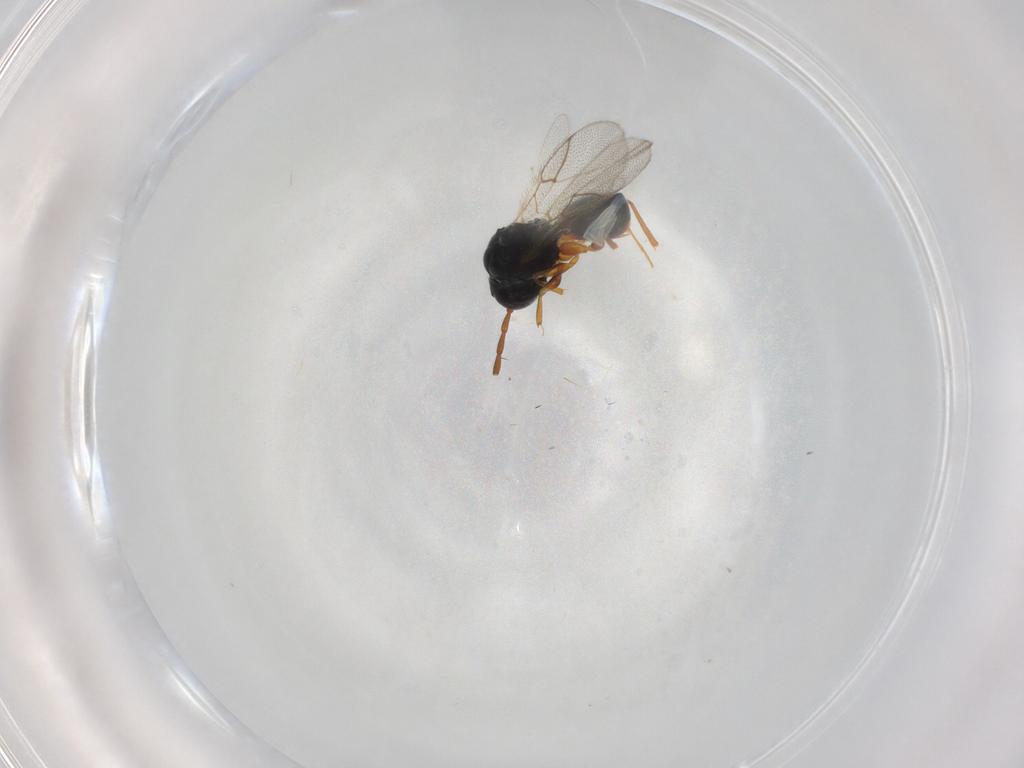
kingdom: Animalia
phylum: Arthropoda
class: Insecta
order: Hymenoptera
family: Figitidae
